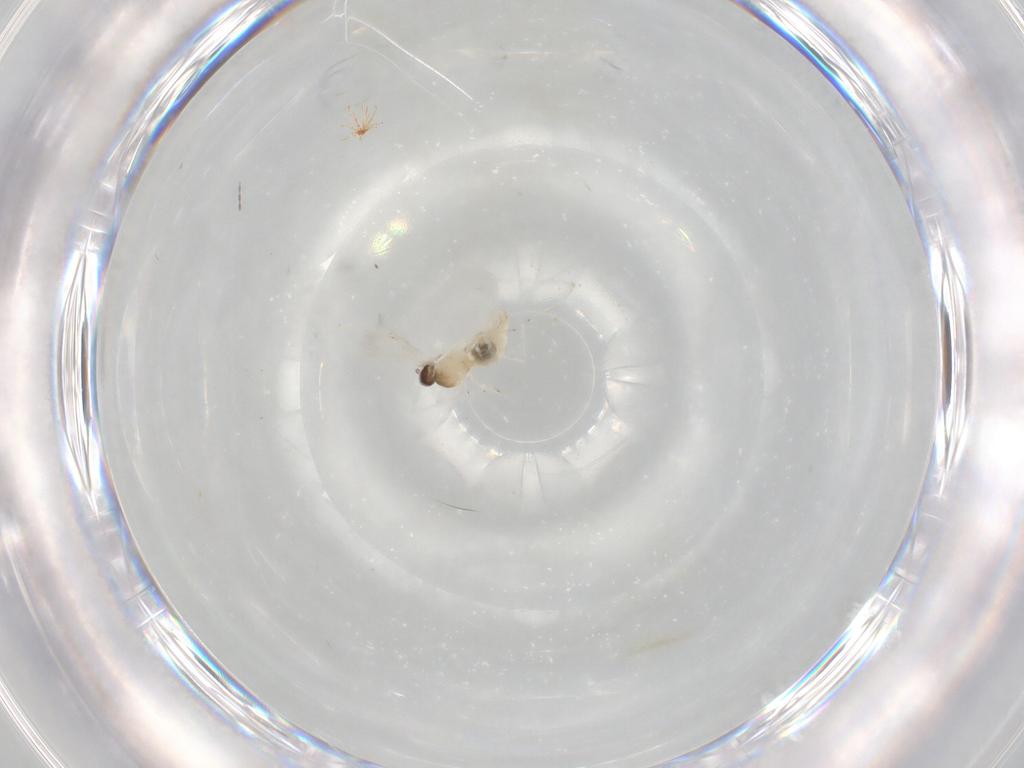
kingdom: Animalia
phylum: Arthropoda
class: Insecta
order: Diptera
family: Cecidomyiidae
